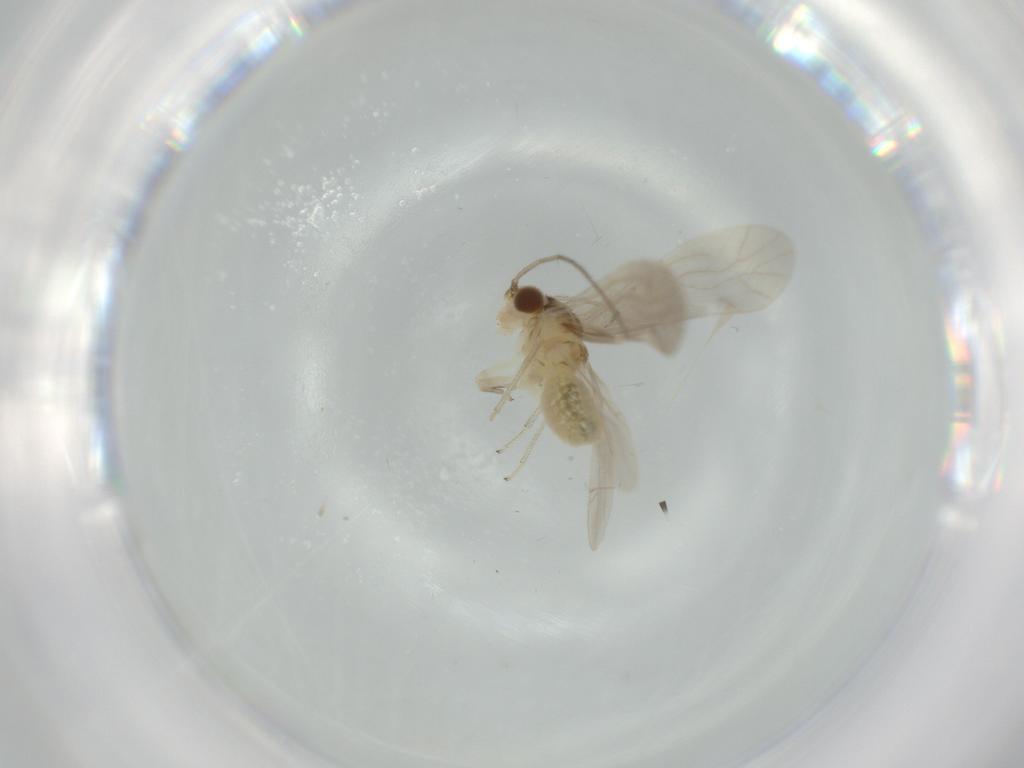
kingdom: Animalia
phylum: Arthropoda
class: Insecta
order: Psocodea
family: Caeciliusidae
